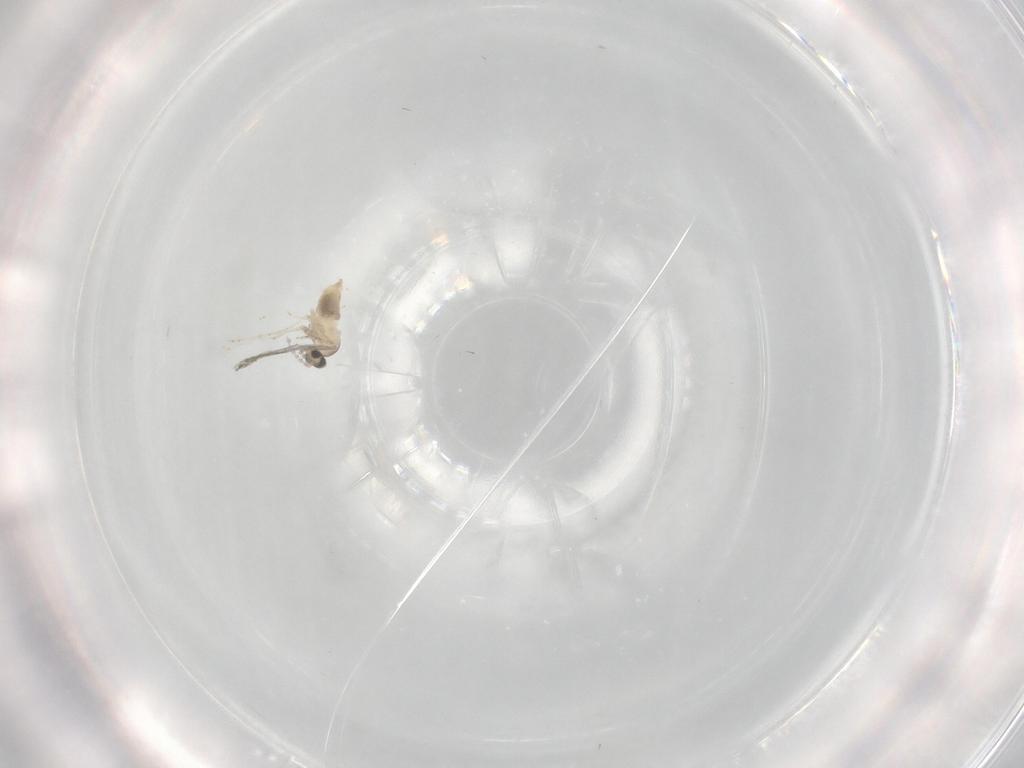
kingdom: Animalia
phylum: Arthropoda
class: Insecta
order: Diptera
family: Cecidomyiidae
